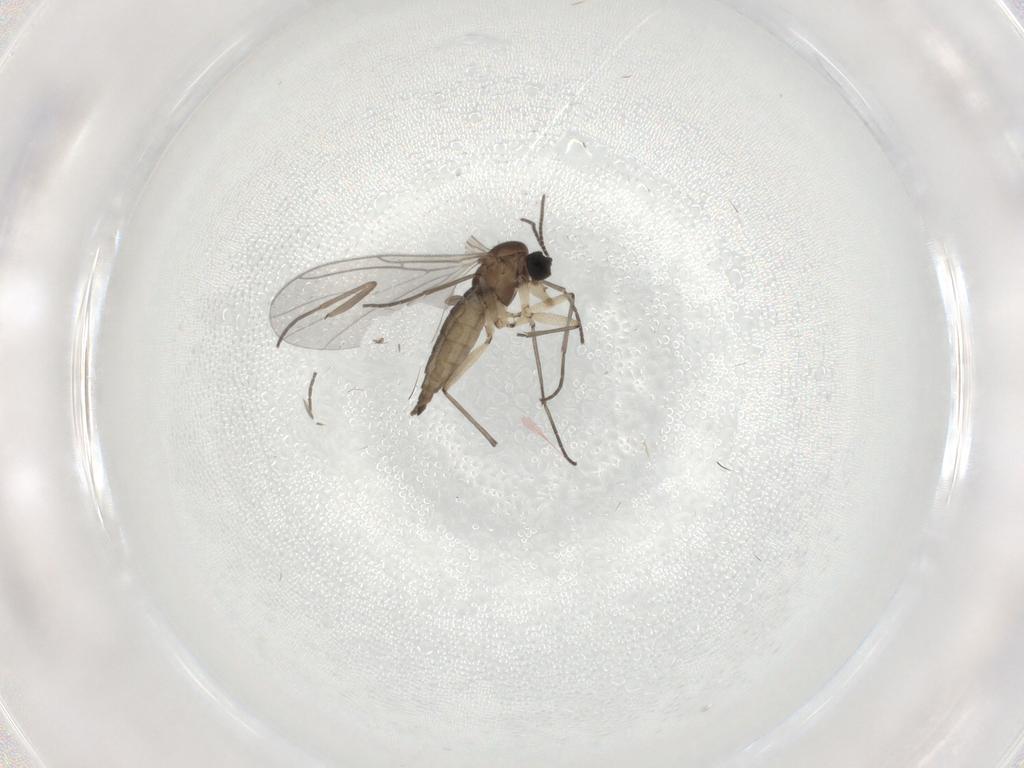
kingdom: Animalia
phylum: Arthropoda
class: Insecta
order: Diptera
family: Sciaridae
